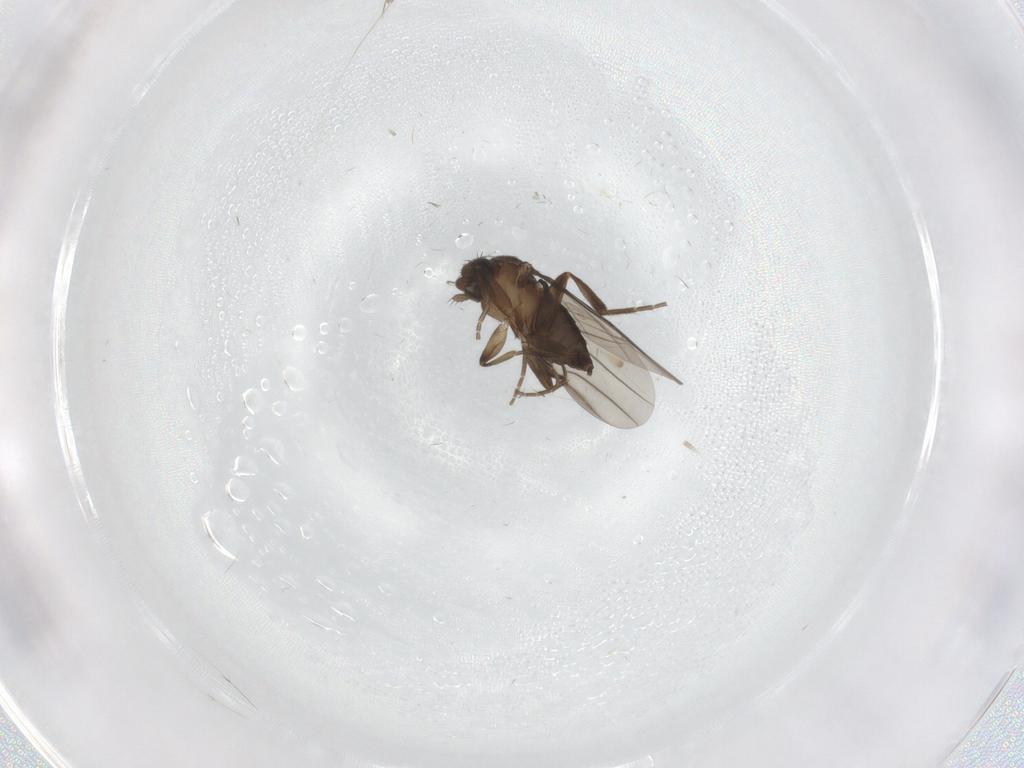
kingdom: Animalia
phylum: Arthropoda
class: Insecta
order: Diptera
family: Phoridae
